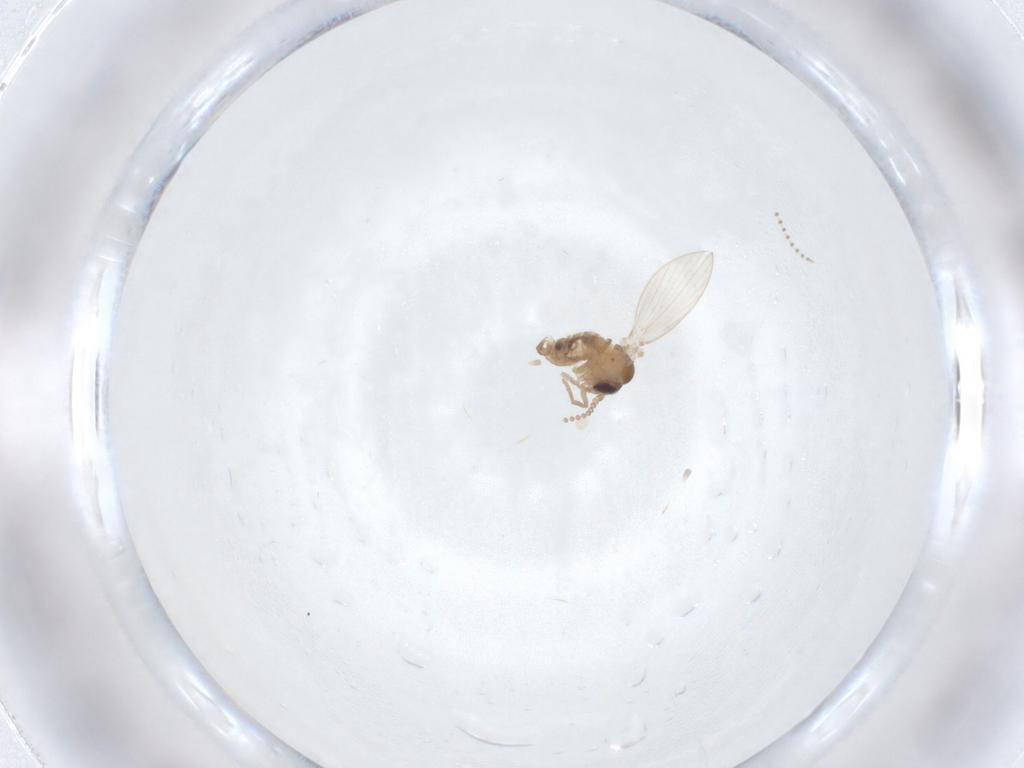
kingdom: Animalia
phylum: Arthropoda
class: Insecta
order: Diptera
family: Psychodidae
